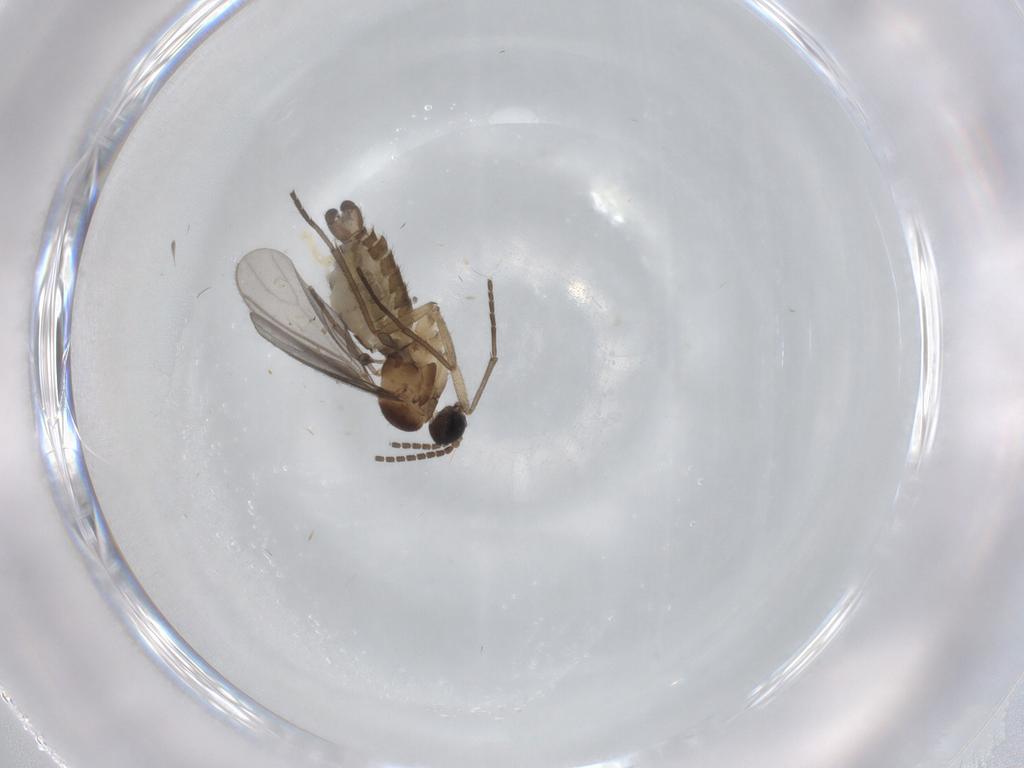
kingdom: Animalia
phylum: Arthropoda
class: Insecta
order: Diptera
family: Sciaridae
